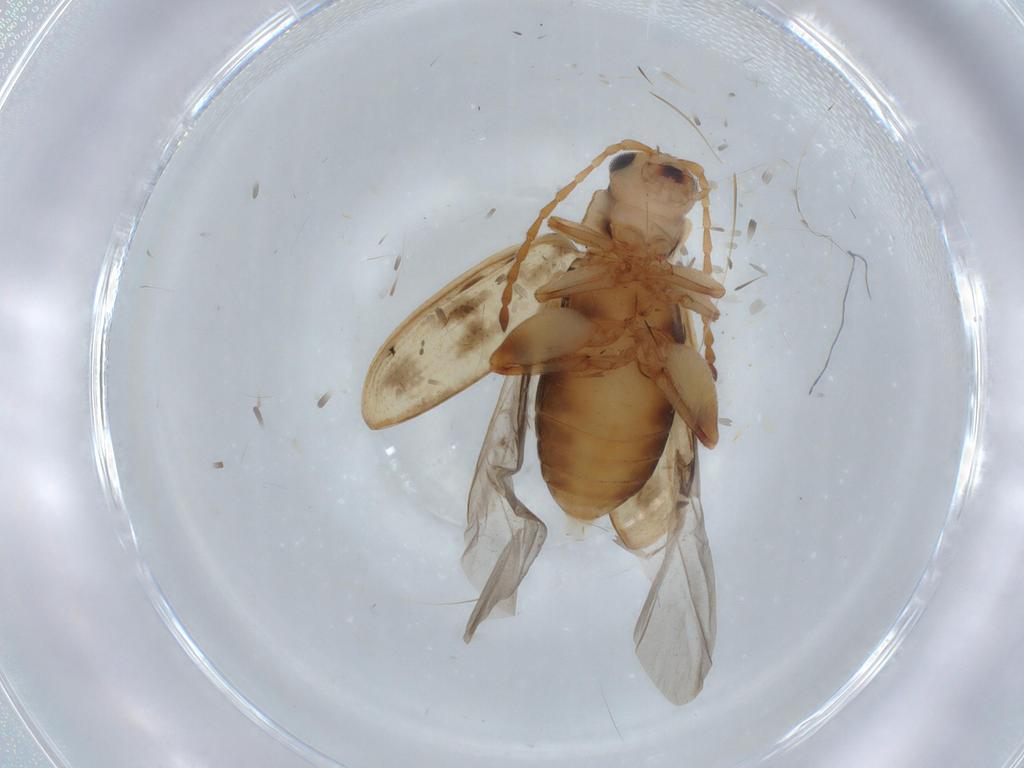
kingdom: Animalia
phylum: Arthropoda
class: Insecta
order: Coleoptera
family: Chrysomelidae
